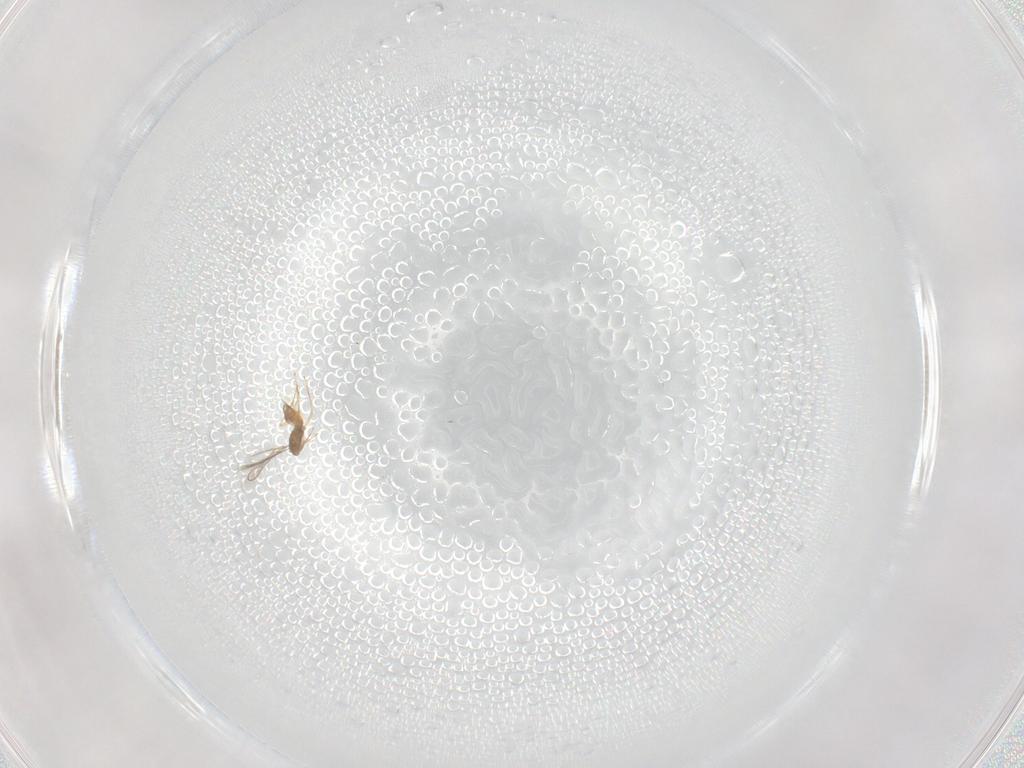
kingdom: Animalia
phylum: Arthropoda
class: Insecta
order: Hymenoptera
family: Mymaridae
